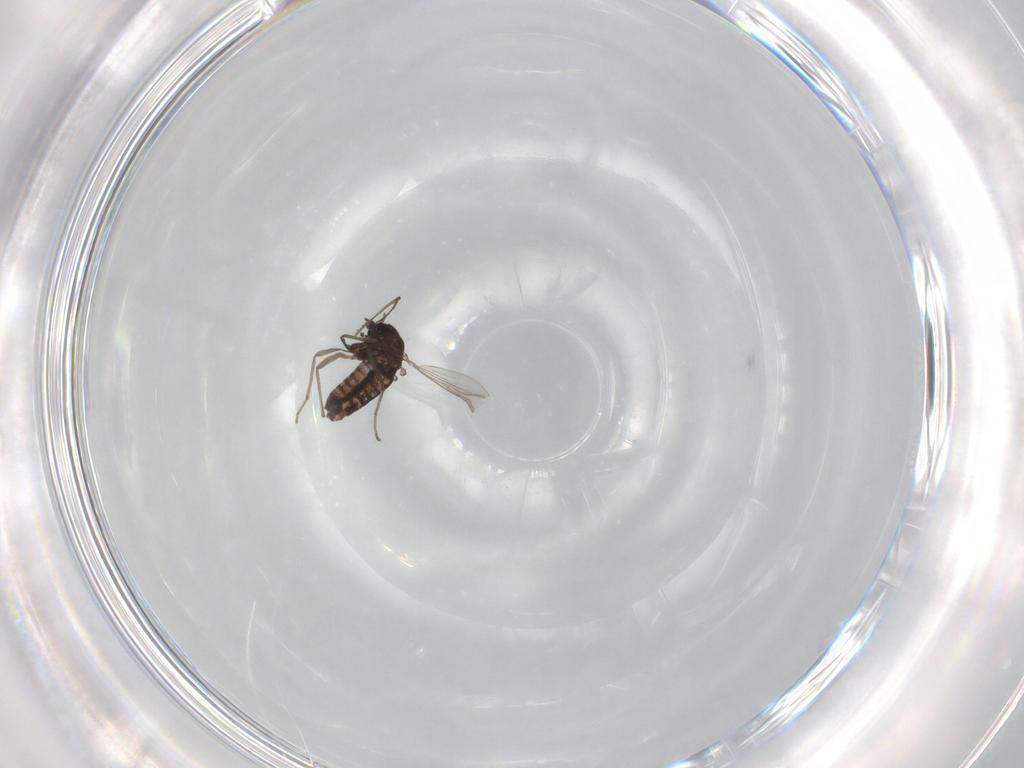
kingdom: Animalia
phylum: Arthropoda
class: Insecta
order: Diptera
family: Chironomidae
